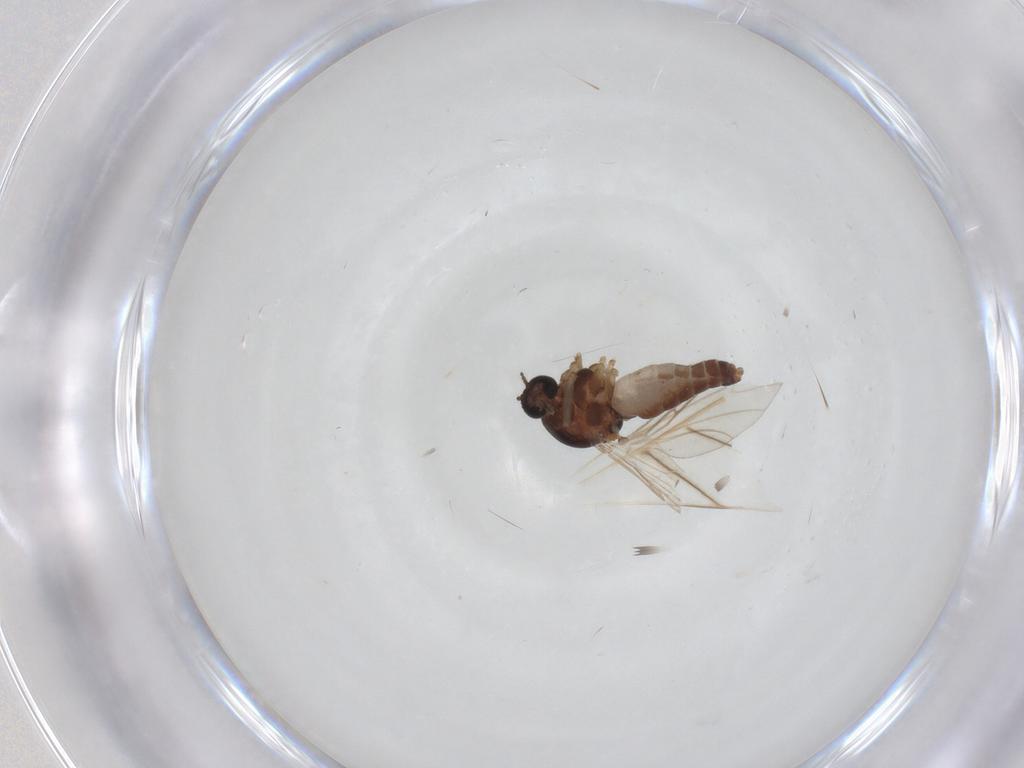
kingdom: Animalia
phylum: Arthropoda
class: Insecta
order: Diptera
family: Ceratopogonidae
